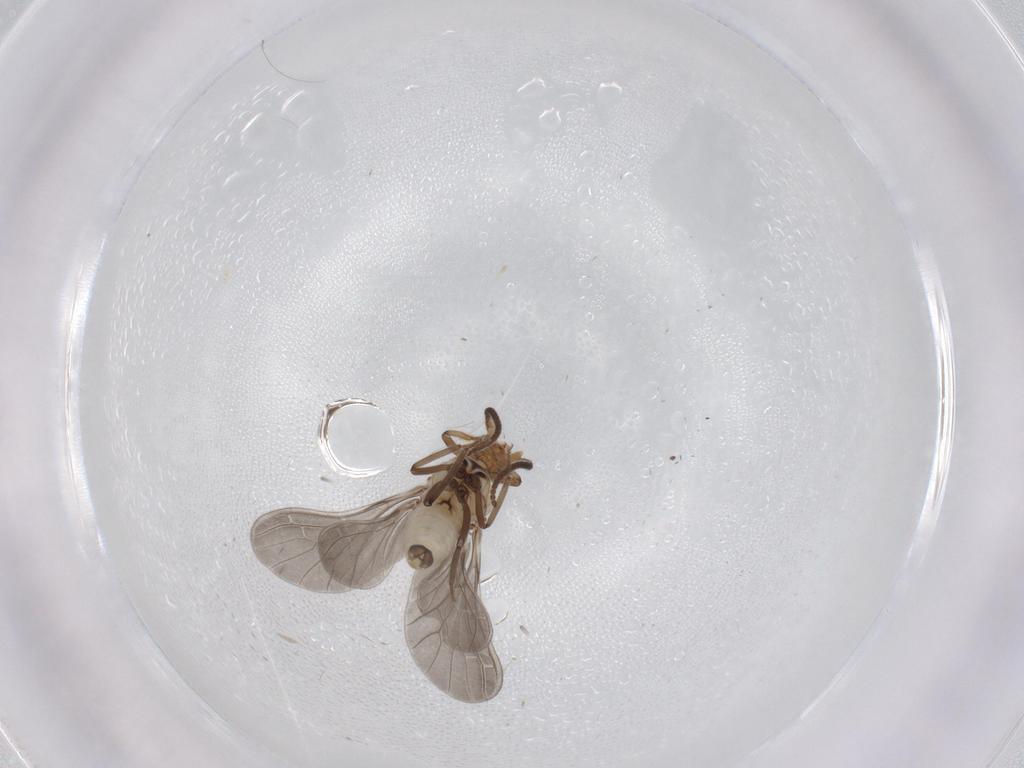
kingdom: Animalia
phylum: Arthropoda
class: Insecta
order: Neuroptera
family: Coniopterygidae
